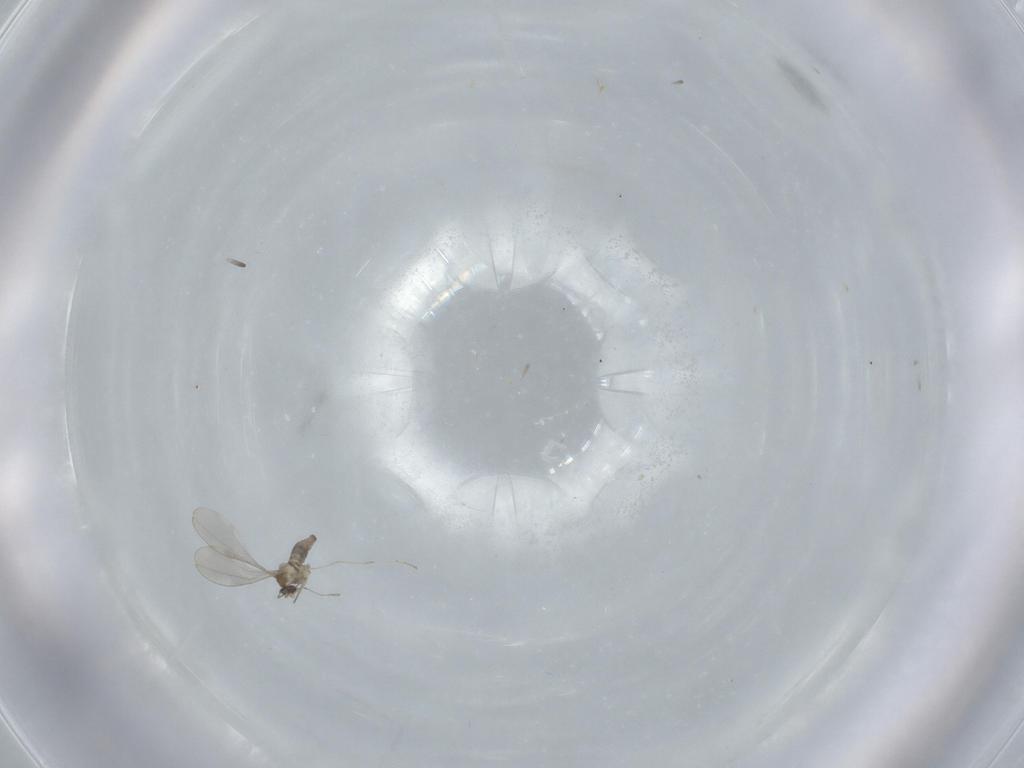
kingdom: Animalia
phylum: Arthropoda
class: Insecta
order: Diptera
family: Cecidomyiidae
